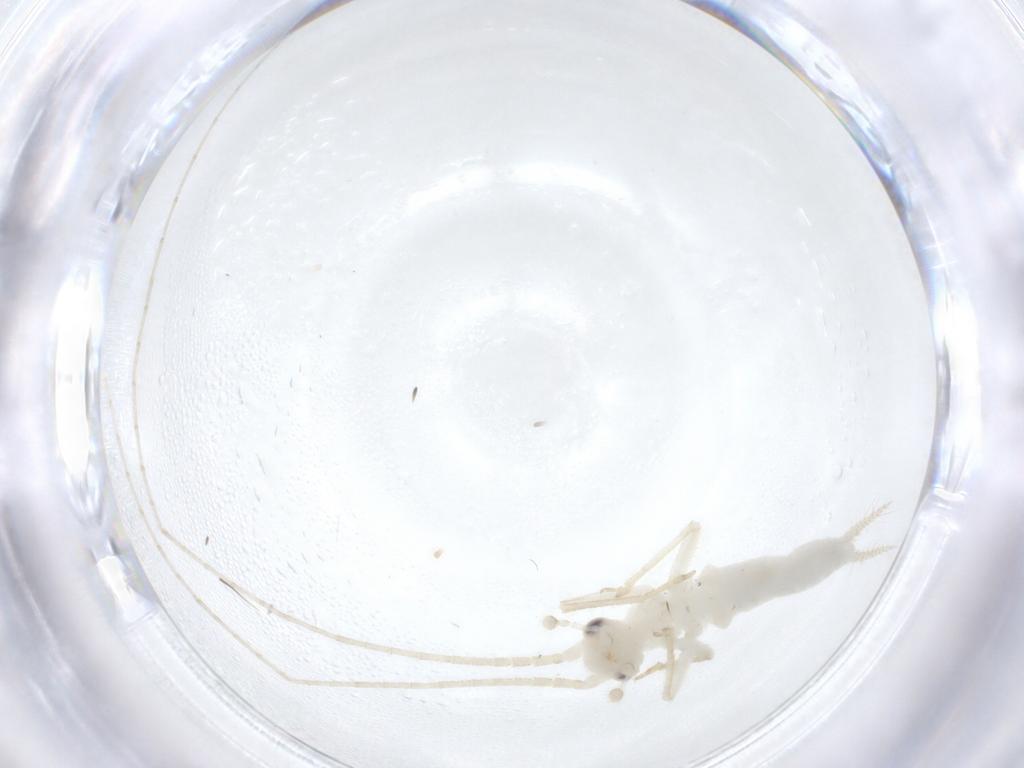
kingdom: Animalia
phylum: Arthropoda
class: Insecta
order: Orthoptera
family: Trigonidiidae
